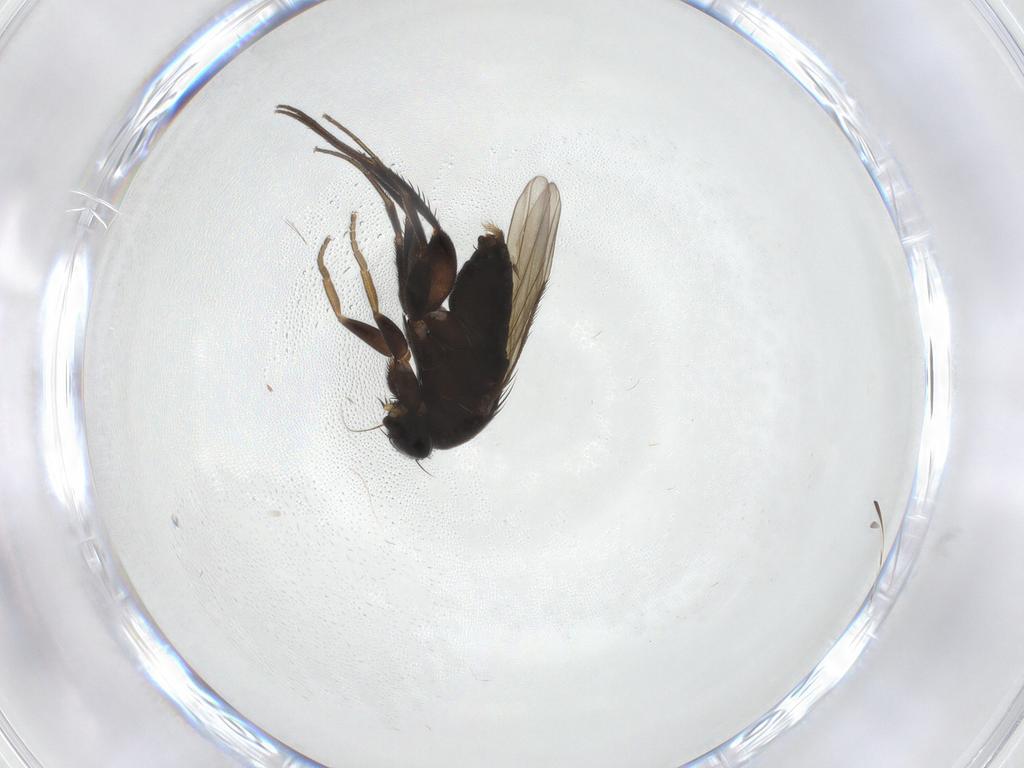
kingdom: Animalia
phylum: Arthropoda
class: Insecta
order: Diptera
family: Phoridae
